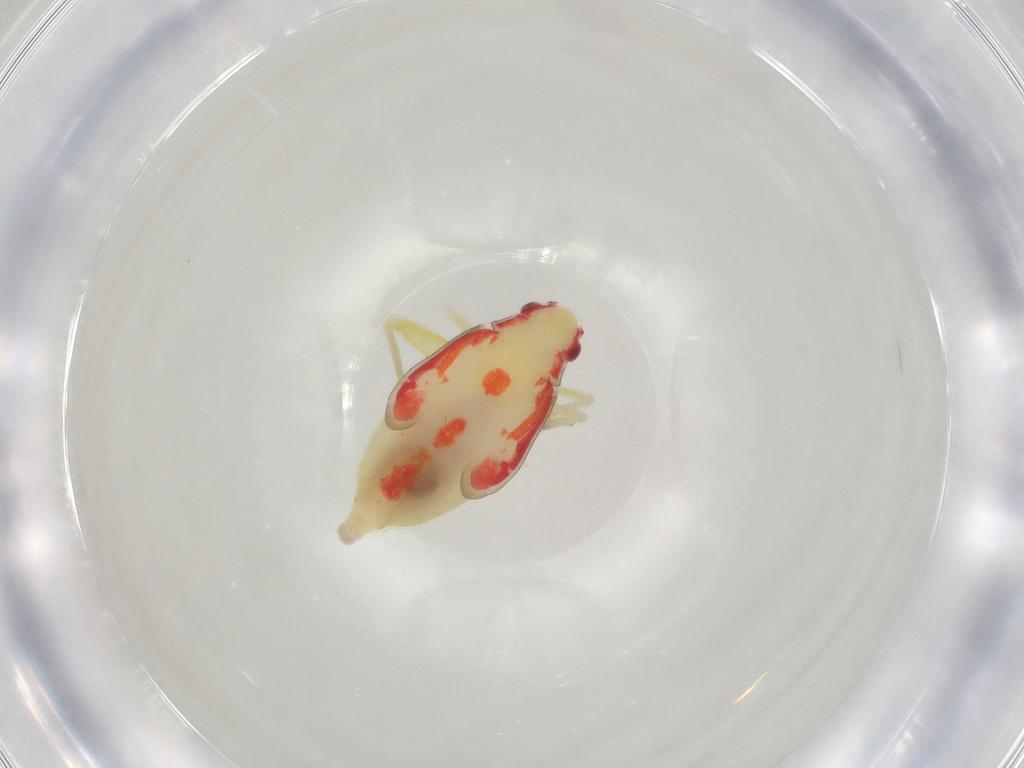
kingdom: Animalia
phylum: Arthropoda
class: Insecta
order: Hemiptera
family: Miridae
